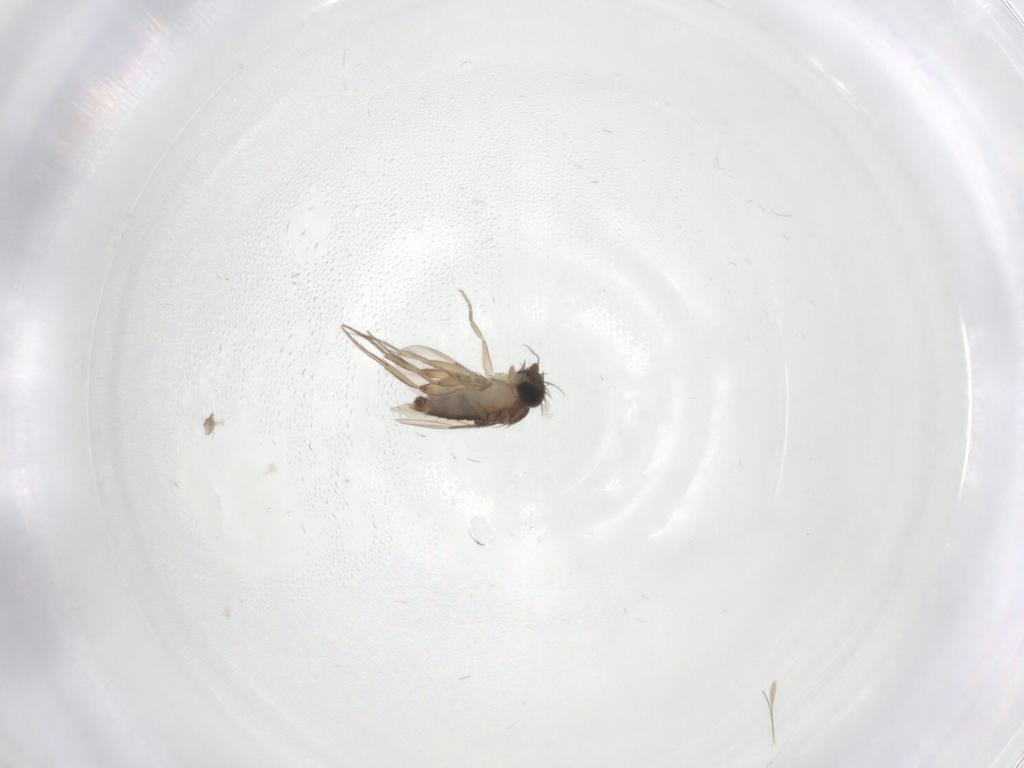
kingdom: Animalia
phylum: Arthropoda
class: Insecta
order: Diptera
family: Phoridae
